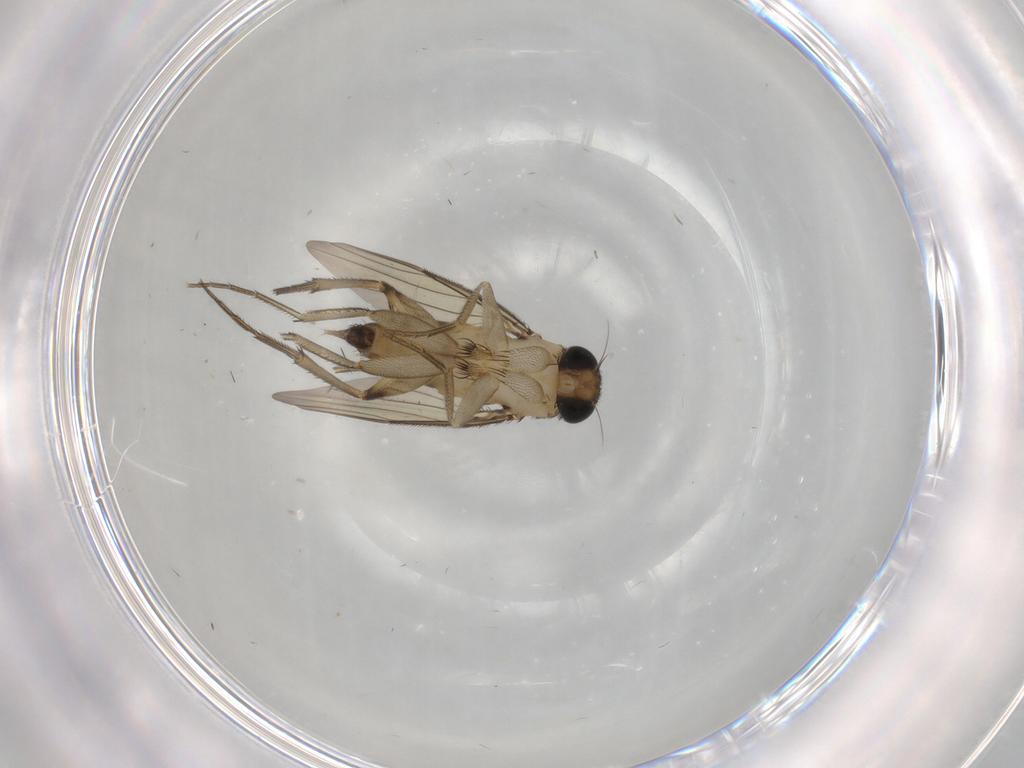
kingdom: Animalia
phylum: Arthropoda
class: Insecta
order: Diptera
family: Phoridae
